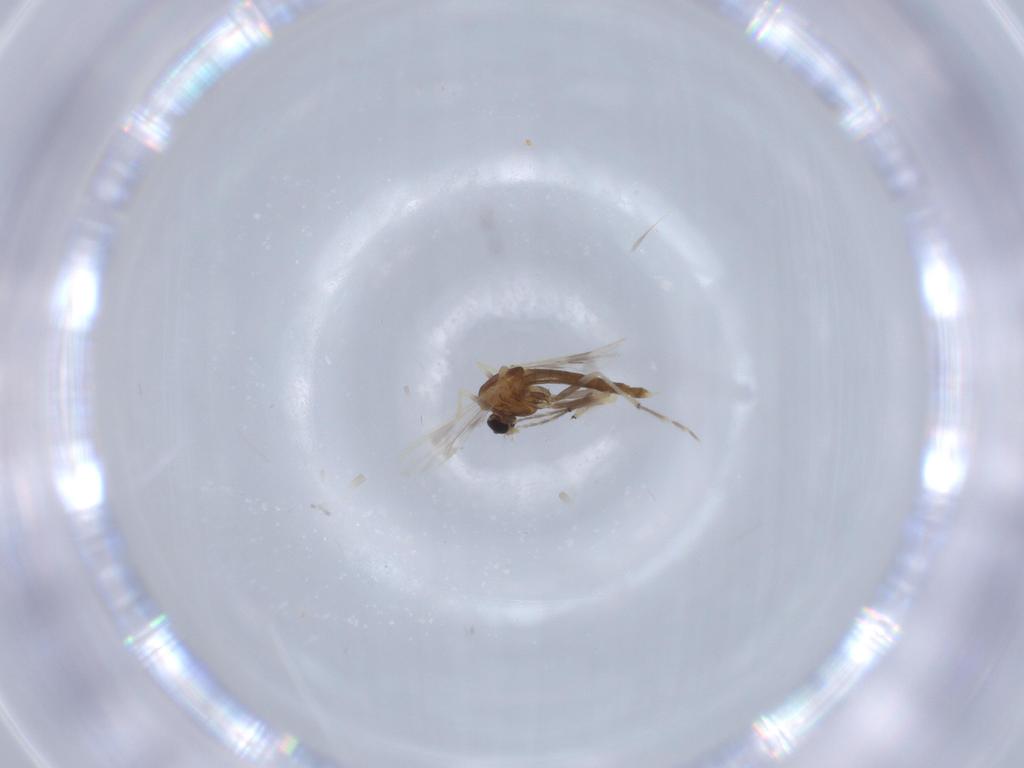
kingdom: Animalia
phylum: Arthropoda
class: Insecta
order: Diptera
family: Chironomidae
